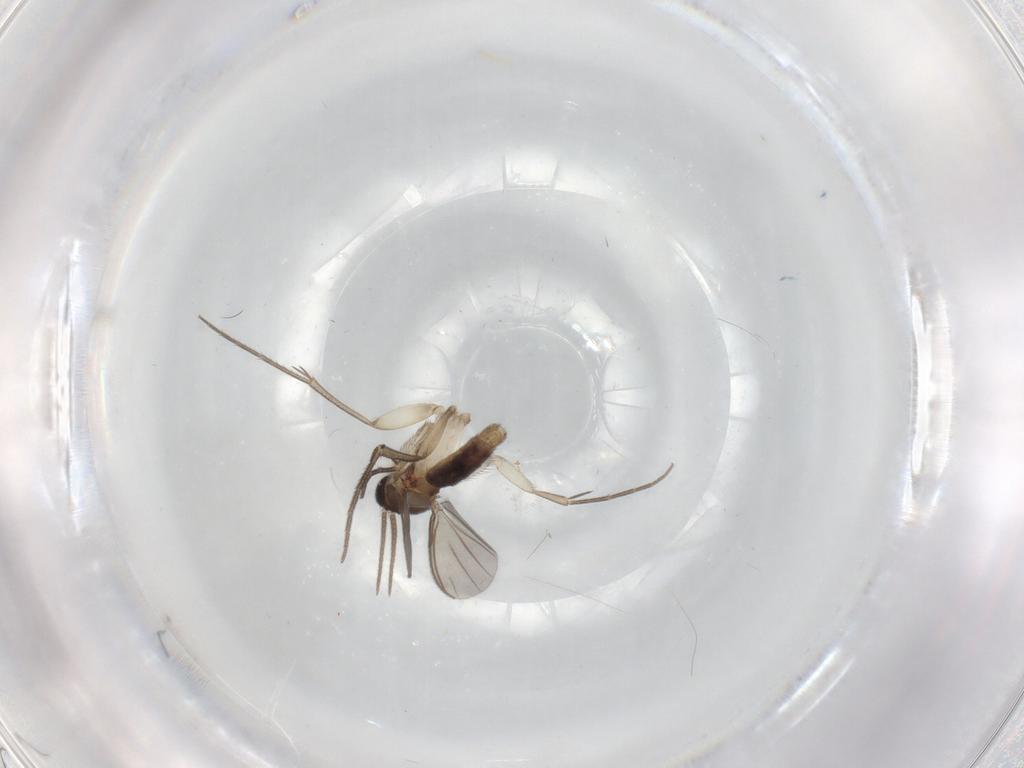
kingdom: Animalia
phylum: Arthropoda
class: Insecta
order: Diptera
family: Mycetophilidae
